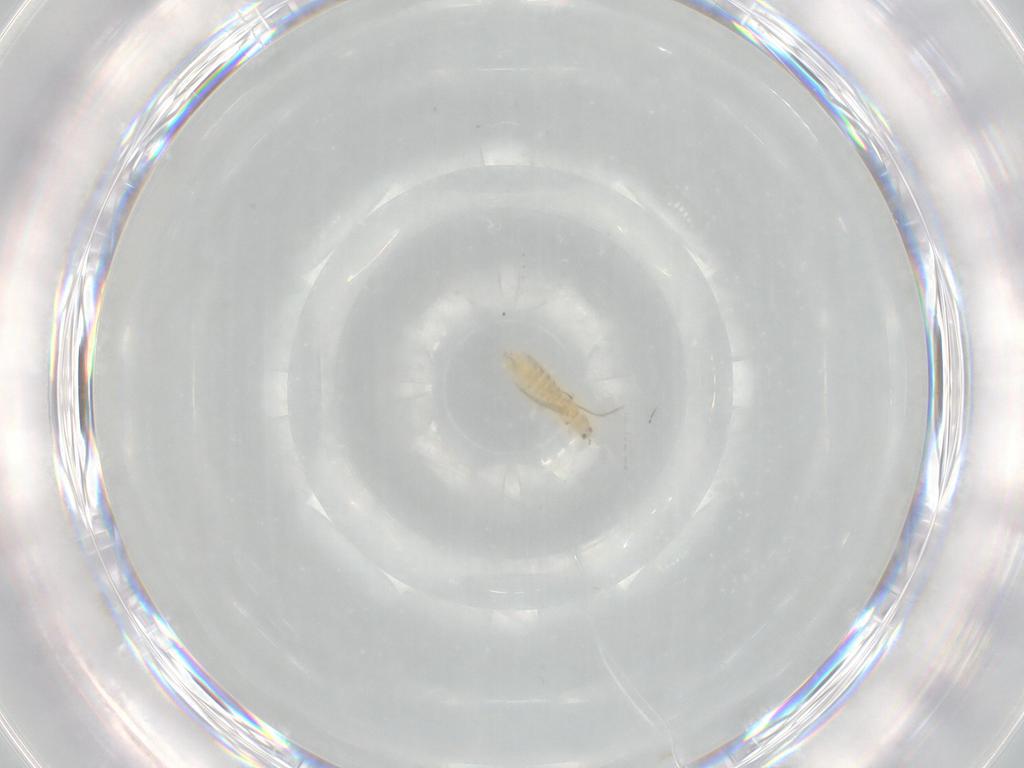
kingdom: Animalia
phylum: Arthropoda
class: Insecta
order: Thysanoptera
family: Thripidae
